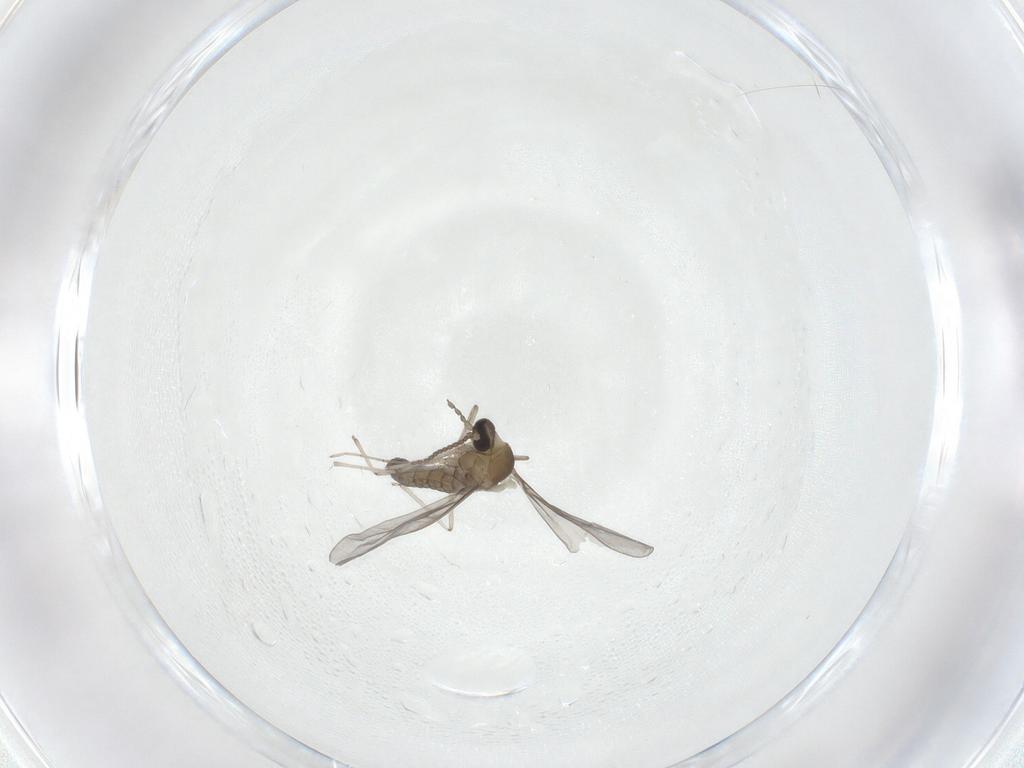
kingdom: Animalia
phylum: Arthropoda
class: Insecta
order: Diptera
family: Cecidomyiidae
